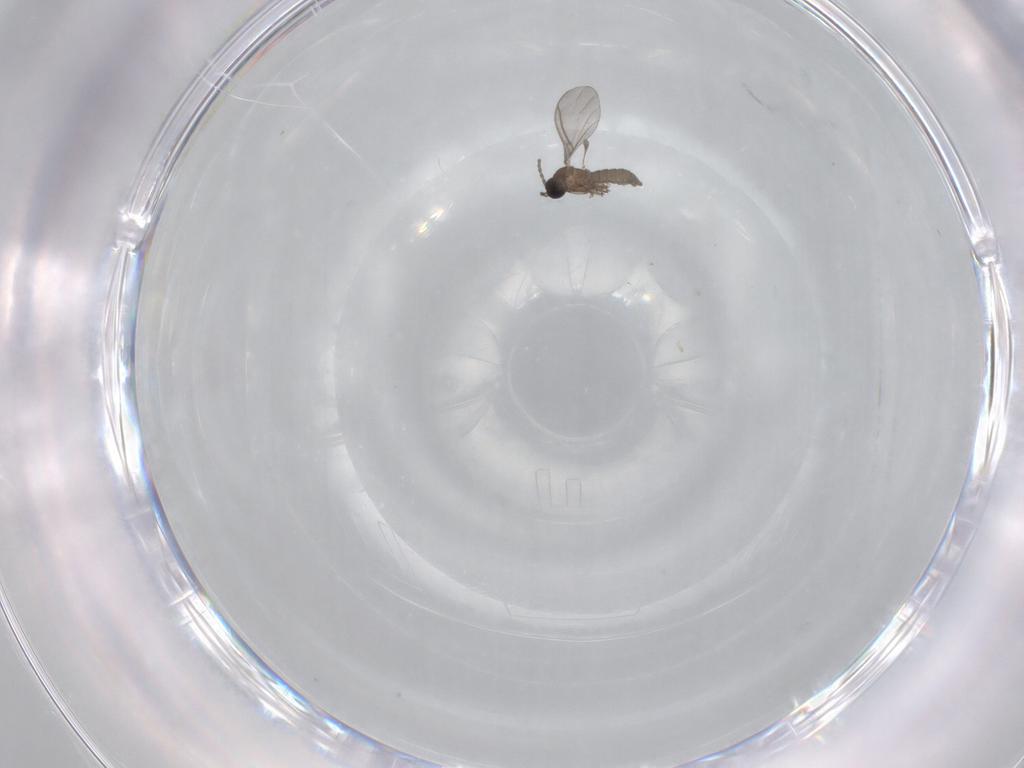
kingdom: Animalia
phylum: Arthropoda
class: Insecta
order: Diptera
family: Sciaridae
